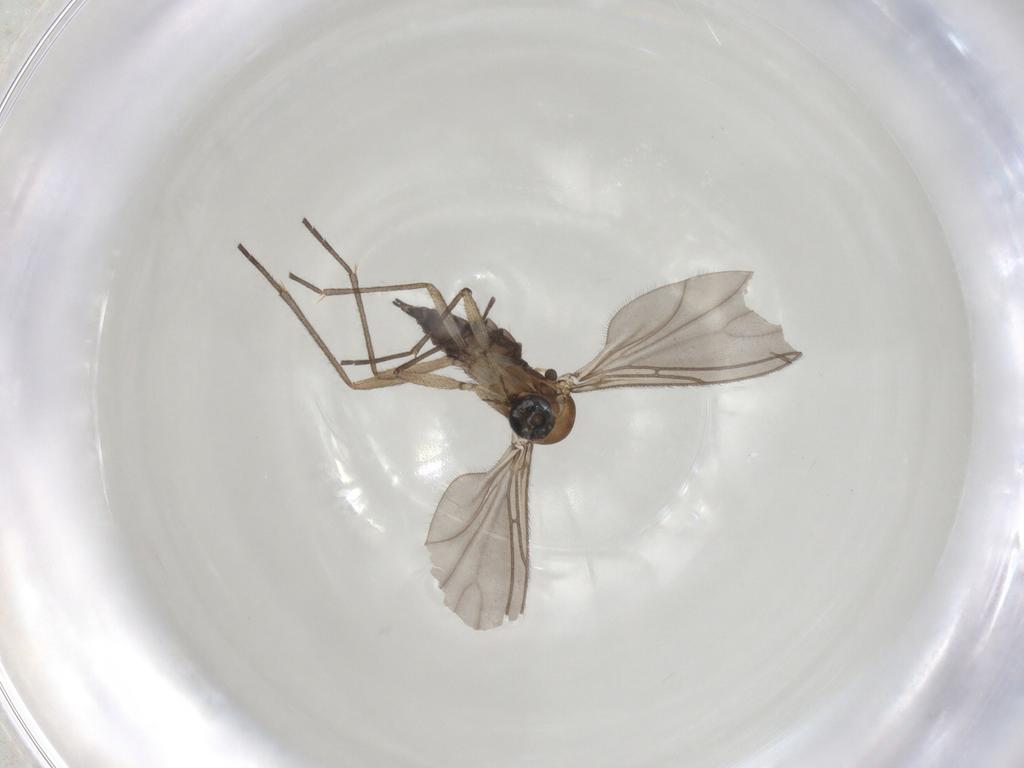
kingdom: Animalia
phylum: Arthropoda
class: Insecta
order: Diptera
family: Sciaridae
